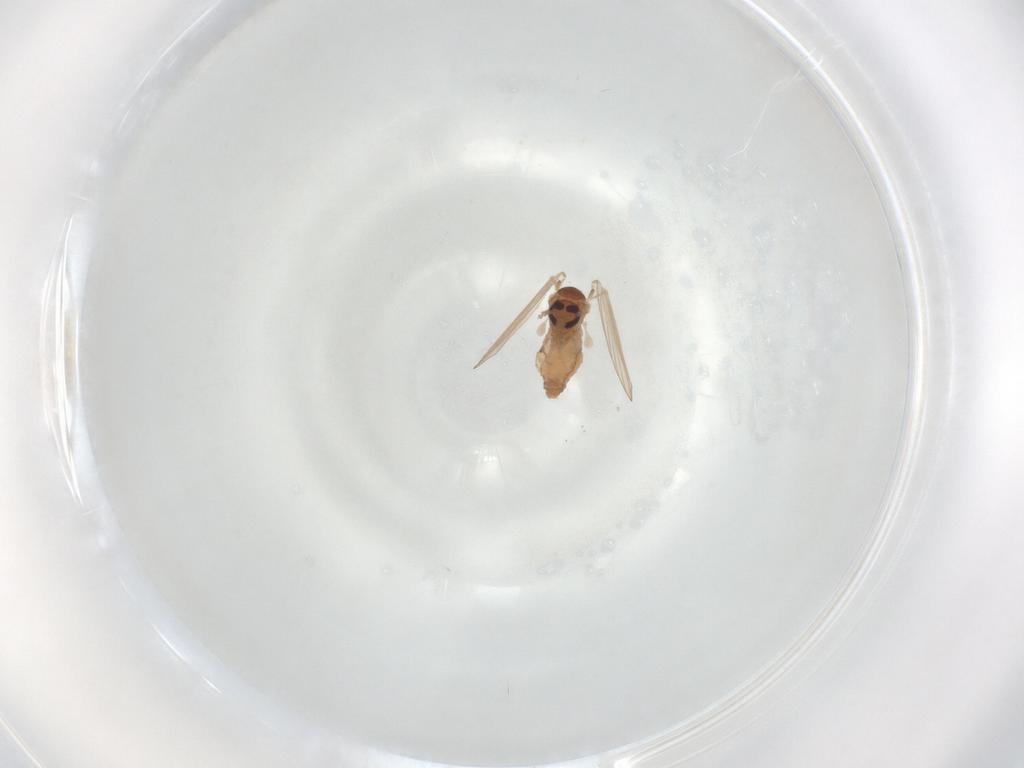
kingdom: Animalia
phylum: Arthropoda
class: Insecta
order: Diptera
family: Psychodidae
